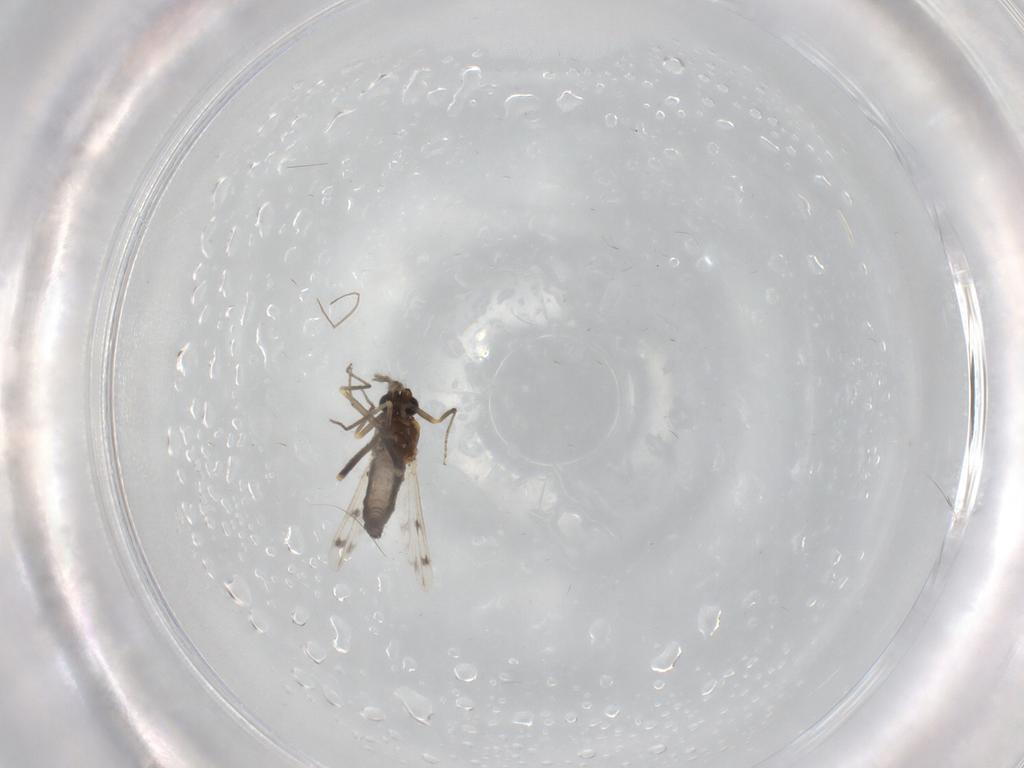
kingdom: Animalia
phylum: Arthropoda
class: Insecta
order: Diptera
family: Ceratopogonidae
